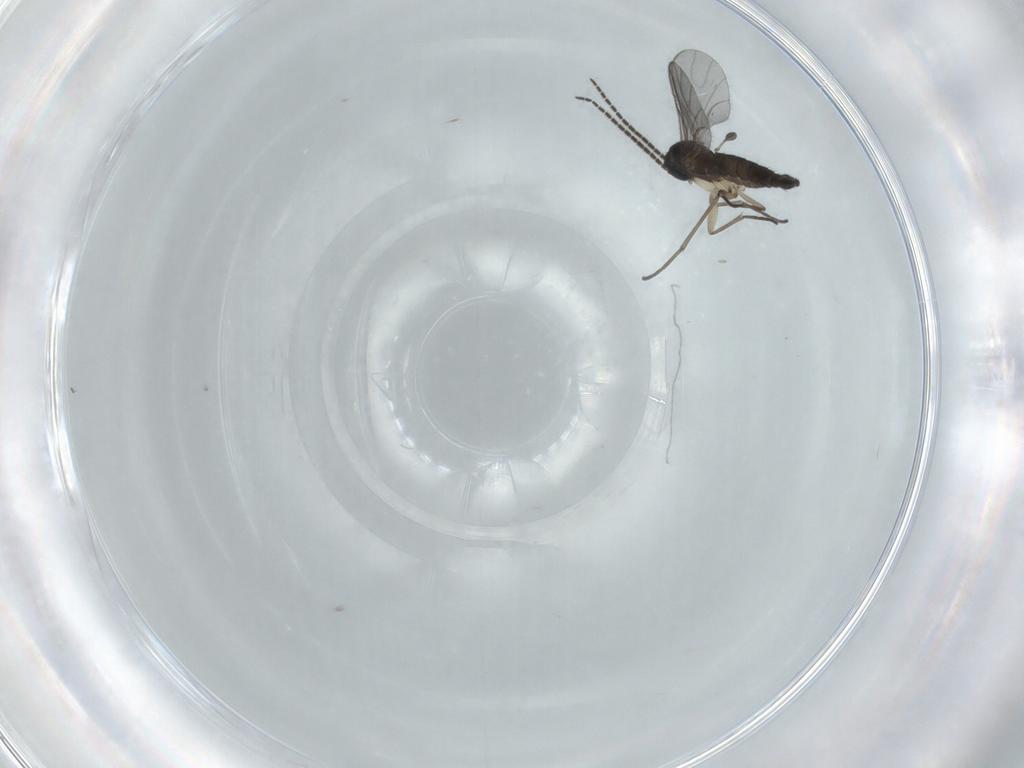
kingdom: Animalia
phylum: Arthropoda
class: Insecta
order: Diptera
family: Sciaridae
